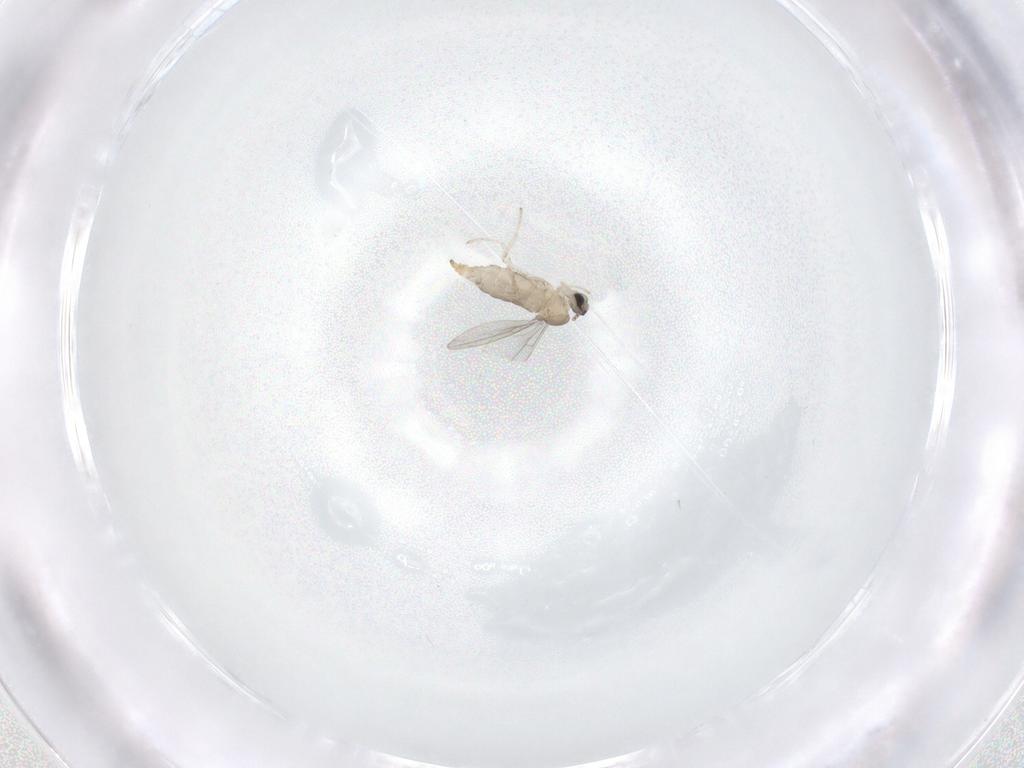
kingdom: Animalia
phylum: Arthropoda
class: Insecta
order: Diptera
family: Cecidomyiidae
